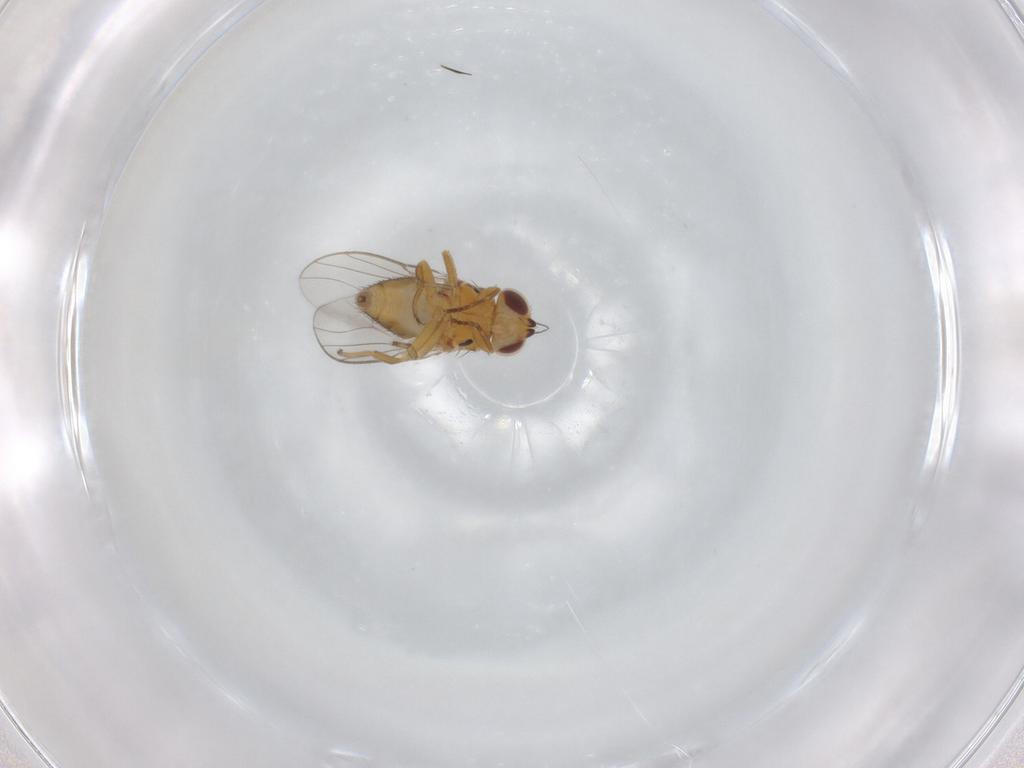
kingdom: Animalia
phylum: Arthropoda
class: Insecta
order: Diptera
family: Chloropidae
